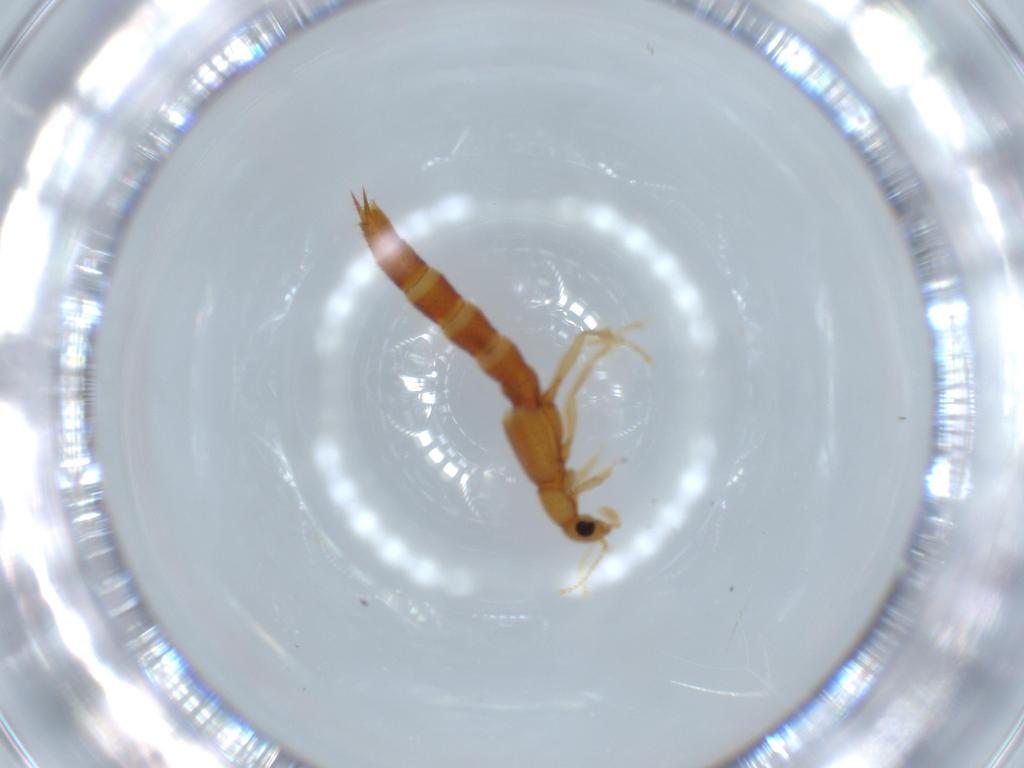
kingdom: Animalia
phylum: Arthropoda
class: Insecta
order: Coleoptera
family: Staphylinidae
